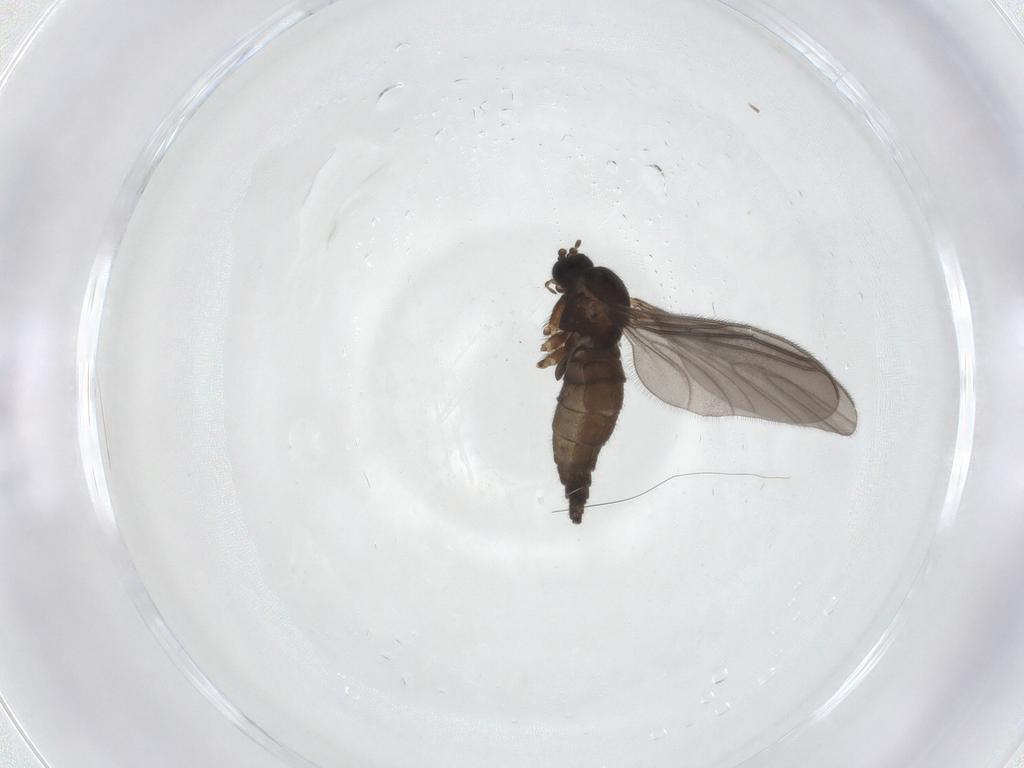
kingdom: Animalia
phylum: Arthropoda
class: Insecta
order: Diptera
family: Sciaridae
